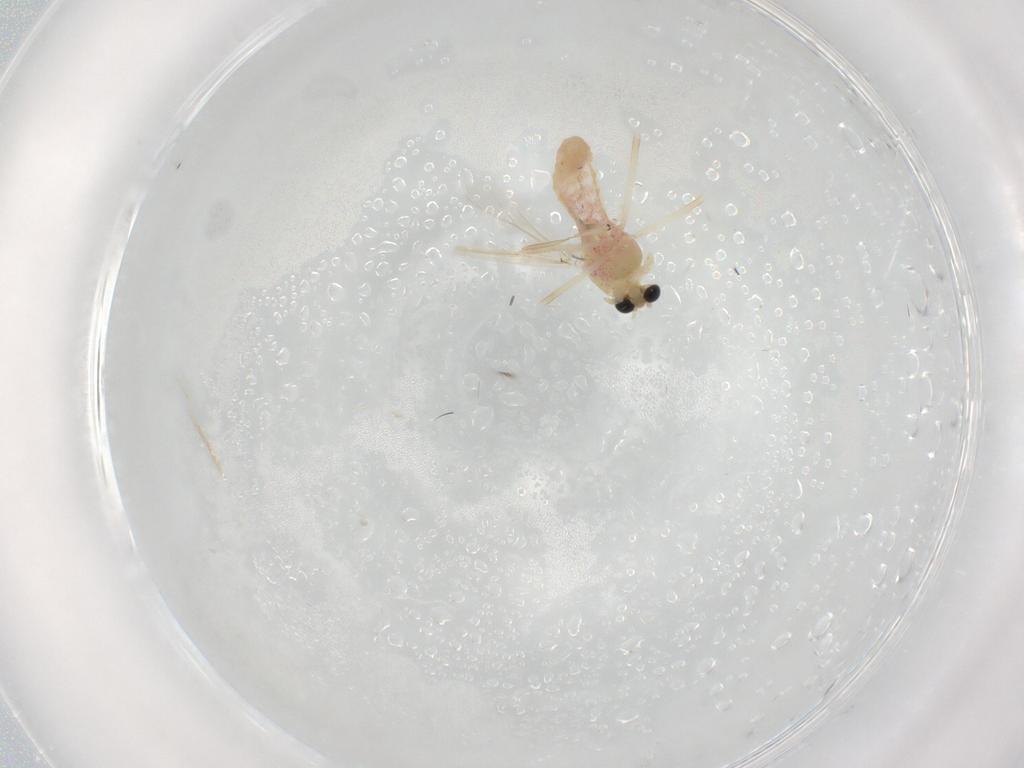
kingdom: Animalia
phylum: Arthropoda
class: Insecta
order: Diptera
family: Chironomidae
